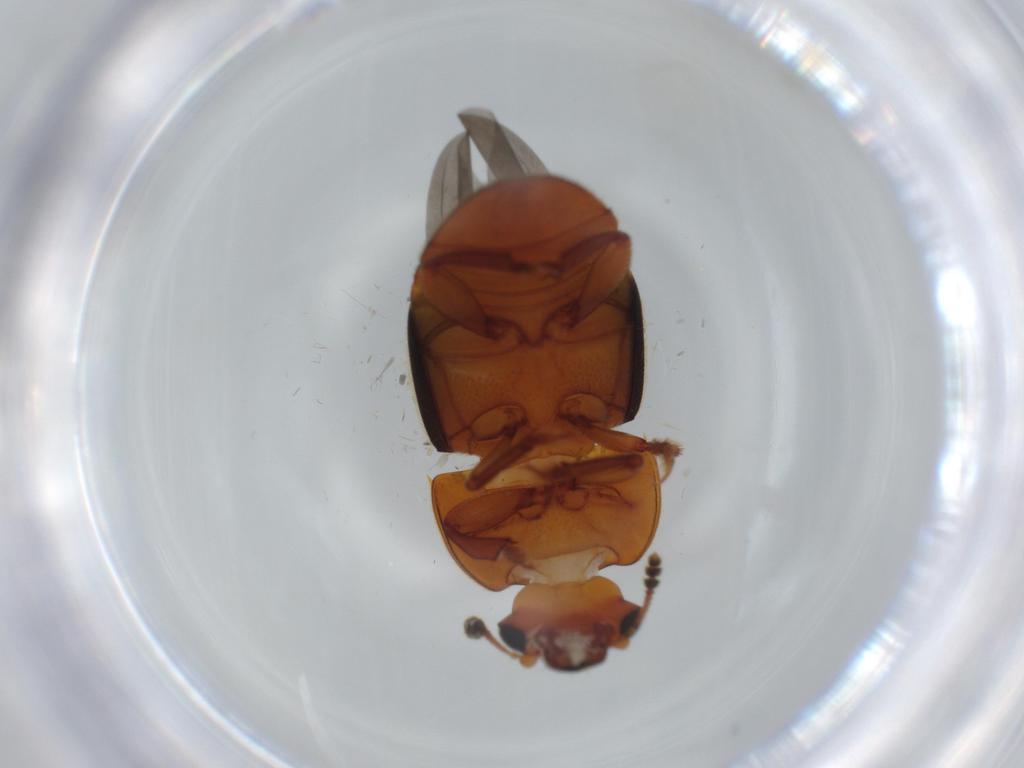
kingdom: Animalia
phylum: Arthropoda
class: Insecta
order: Coleoptera
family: Nitidulidae
